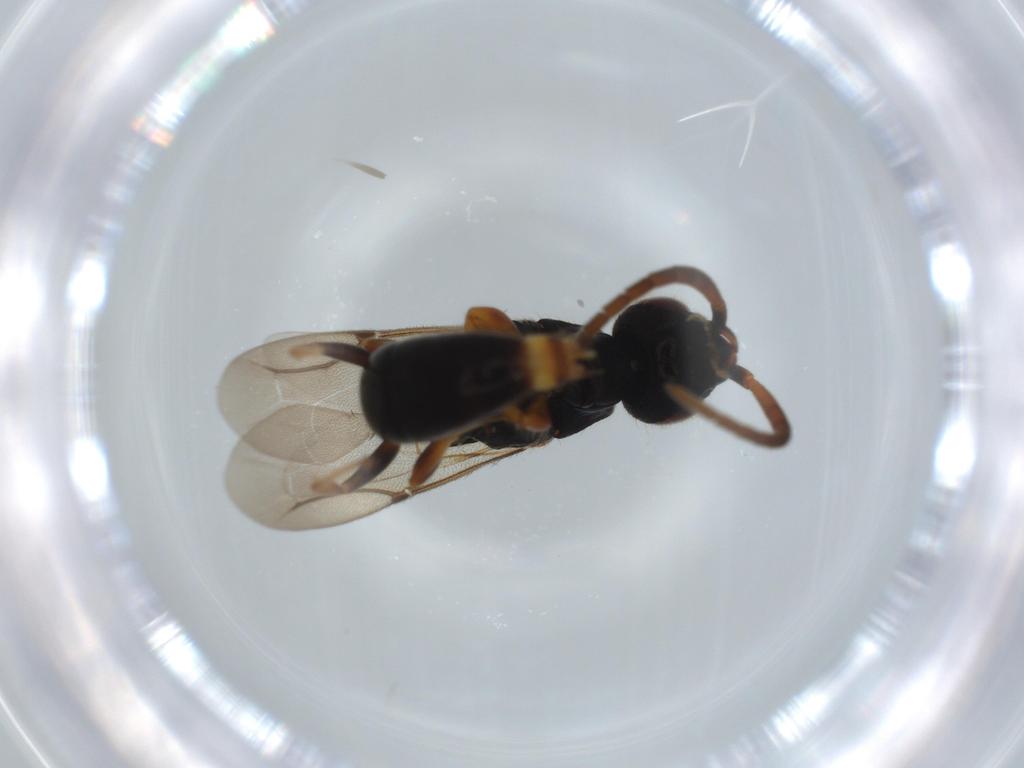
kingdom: Animalia
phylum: Arthropoda
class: Insecta
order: Hymenoptera
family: Bethylidae
